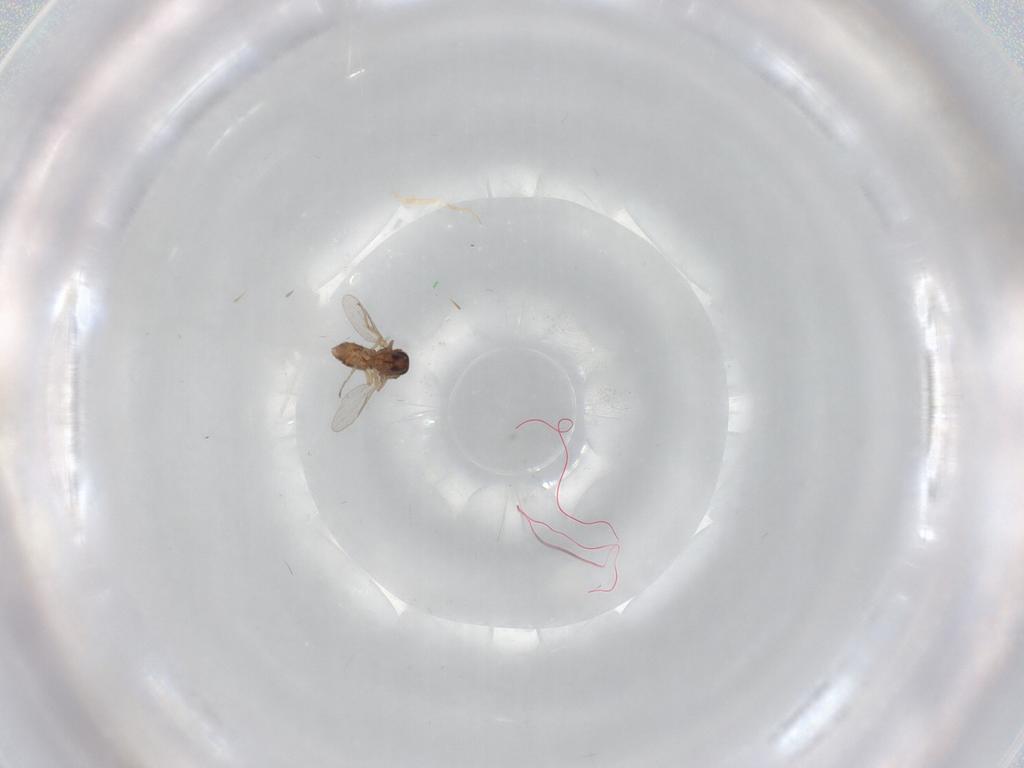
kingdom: Animalia
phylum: Arthropoda
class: Insecta
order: Diptera
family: Ceratopogonidae
